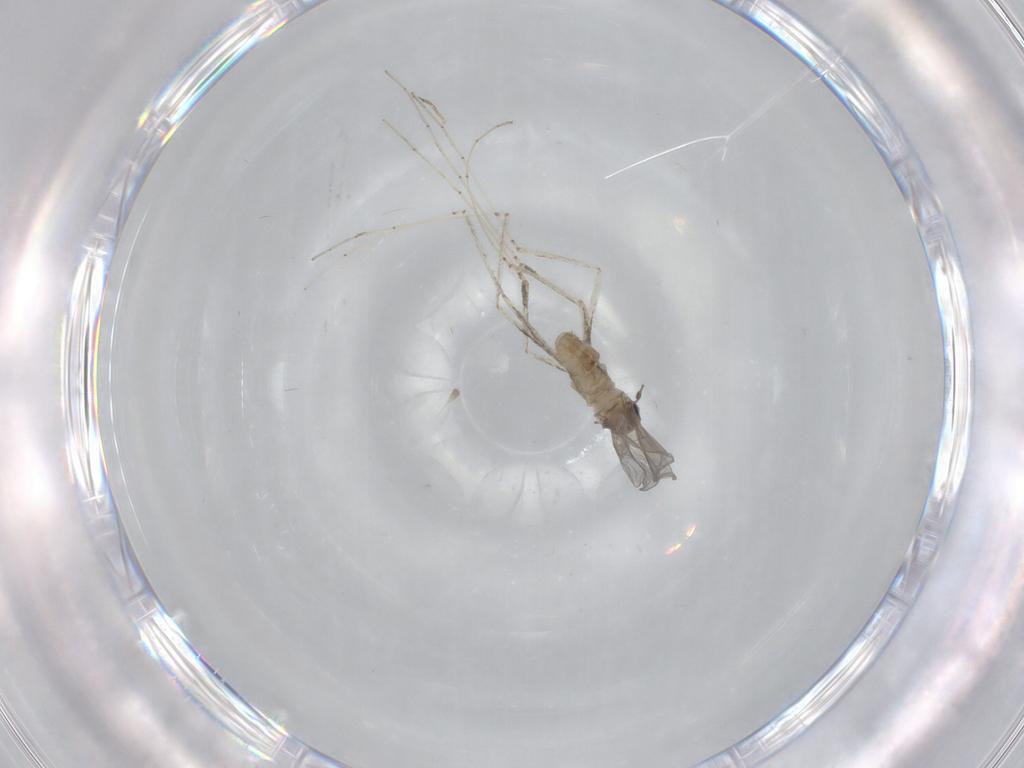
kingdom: Animalia
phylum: Arthropoda
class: Insecta
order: Diptera
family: Cecidomyiidae
